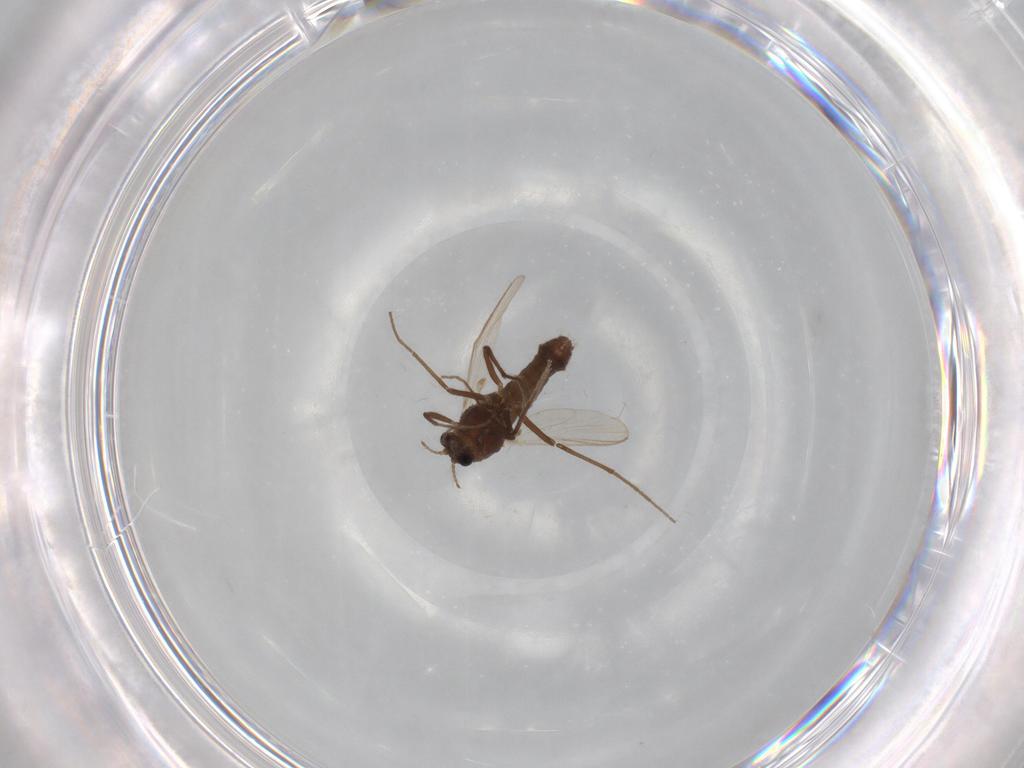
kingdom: Animalia
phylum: Arthropoda
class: Insecta
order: Diptera
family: Chironomidae
